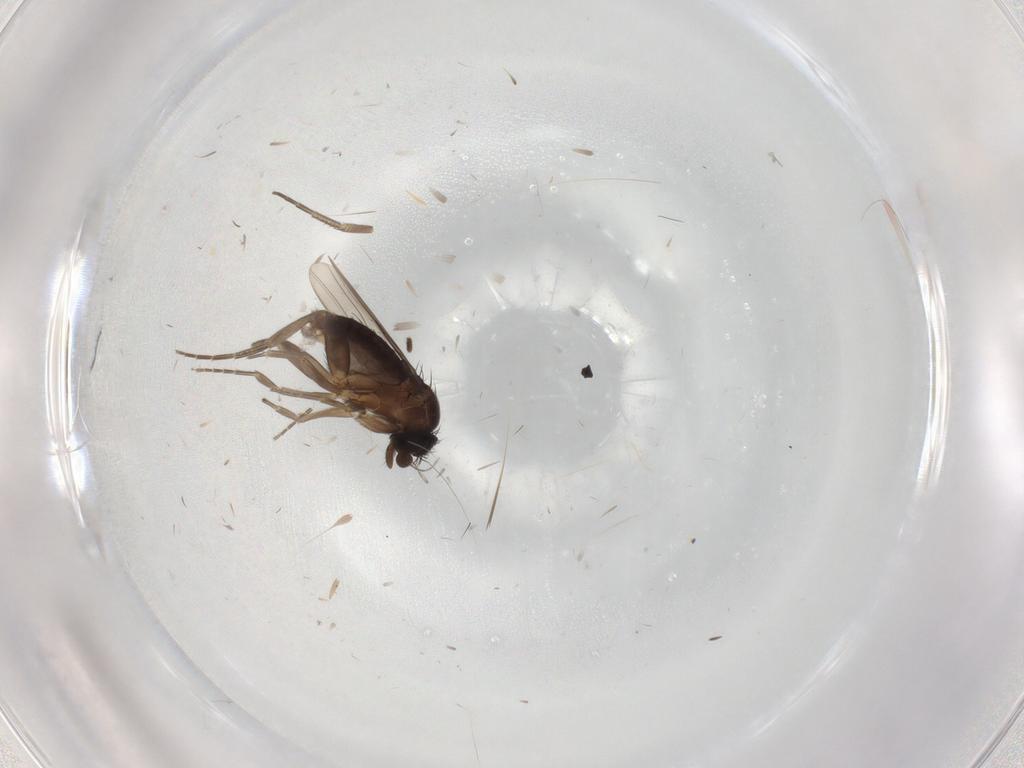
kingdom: Animalia
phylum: Arthropoda
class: Insecta
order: Diptera
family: Phoridae
